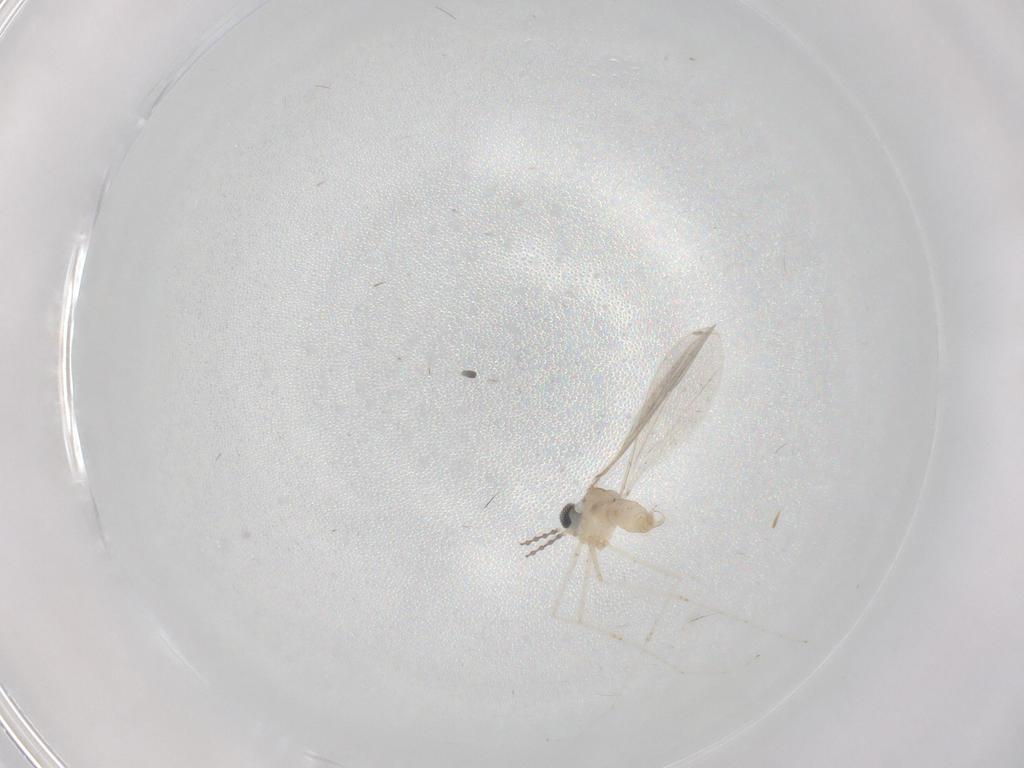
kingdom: Animalia
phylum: Arthropoda
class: Insecta
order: Diptera
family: Cecidomyiidae
